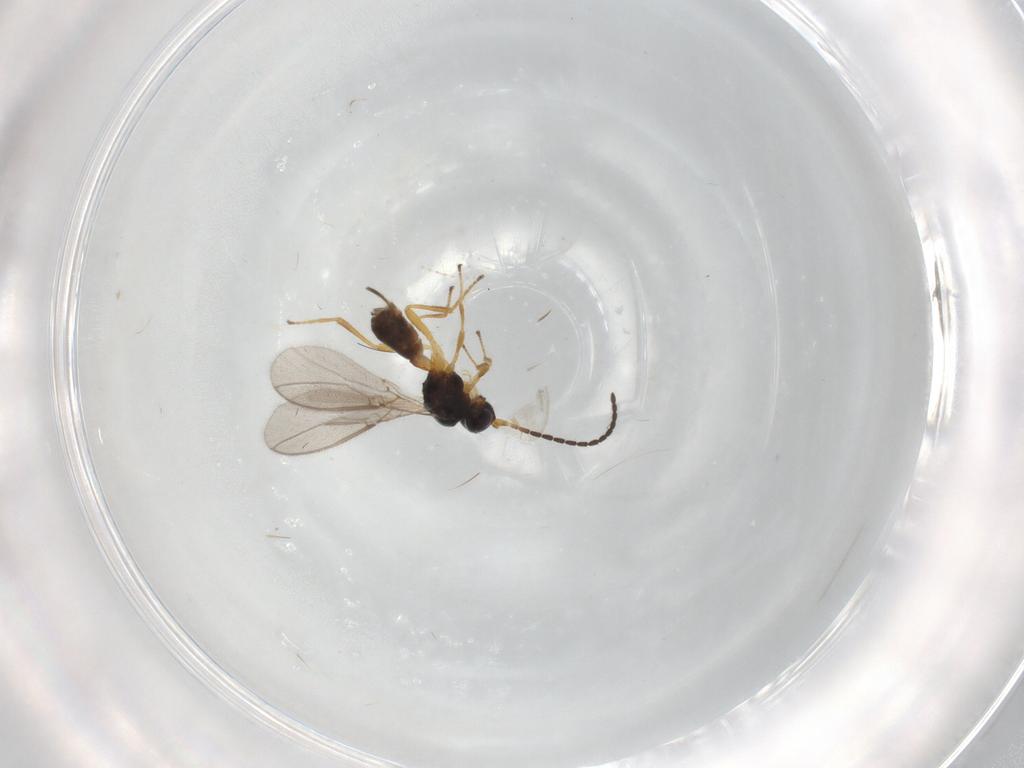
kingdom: Animalia
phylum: Arthropoda
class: Insecta
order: Hymenoptera
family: Braconidae
